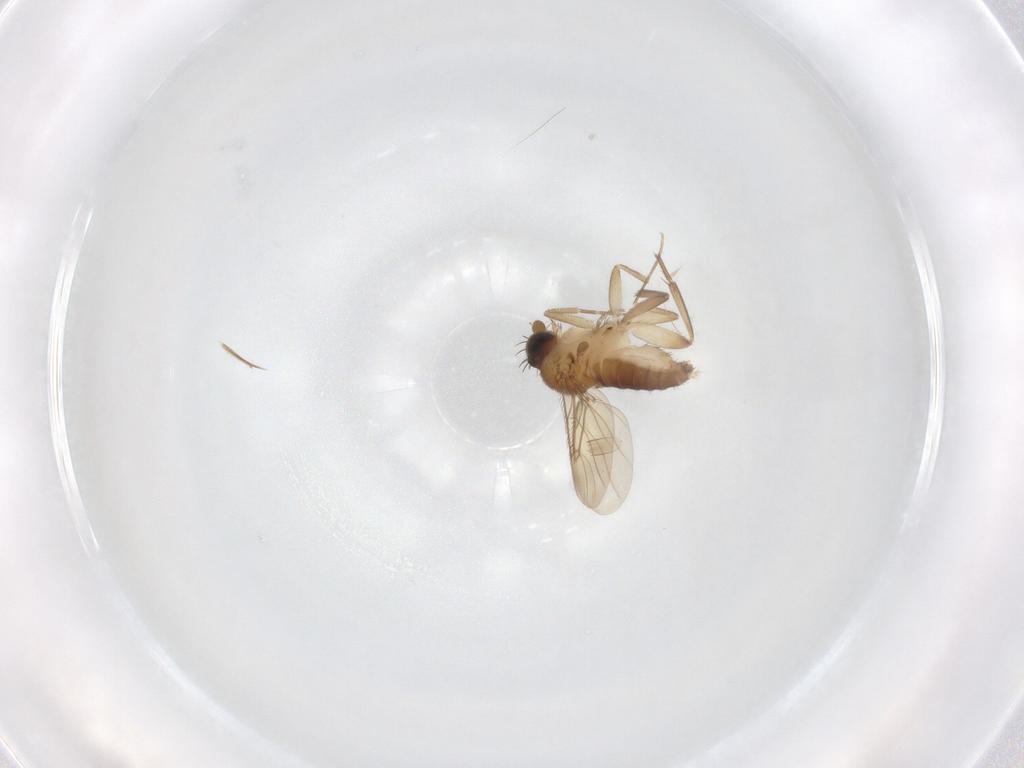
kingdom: Animalia
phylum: Arthropoda
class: Insecta
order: Diptera
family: Phoridae
